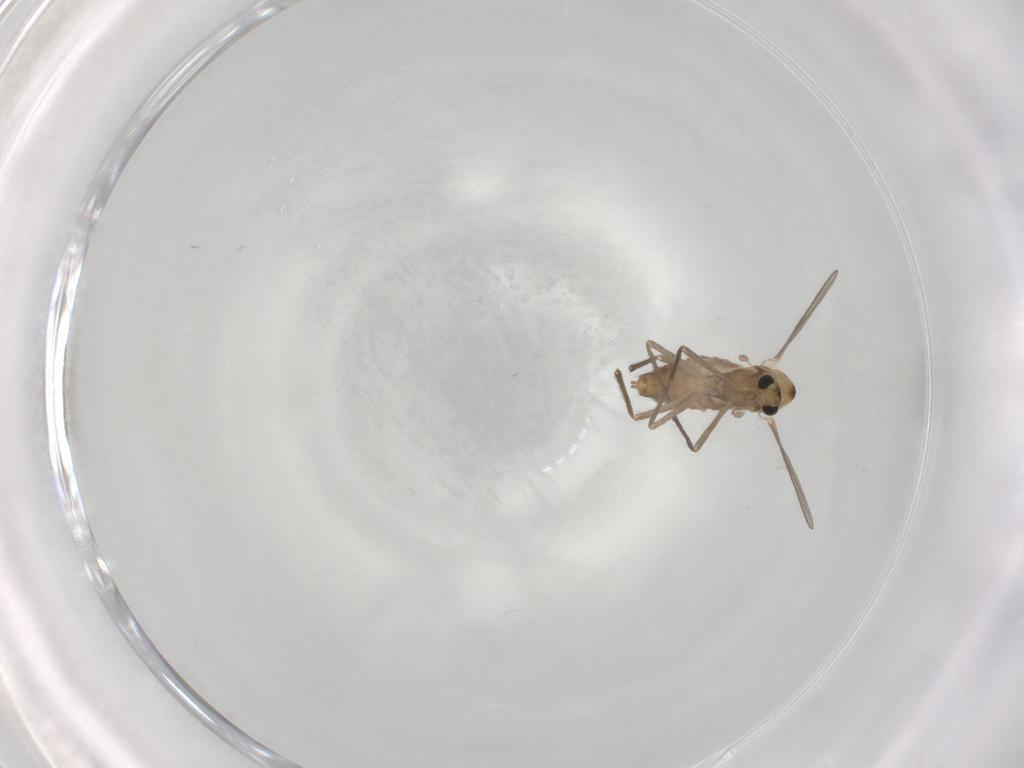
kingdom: Animalia
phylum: Arthropoda
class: Insecta
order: Diptera
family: Chironomidae
